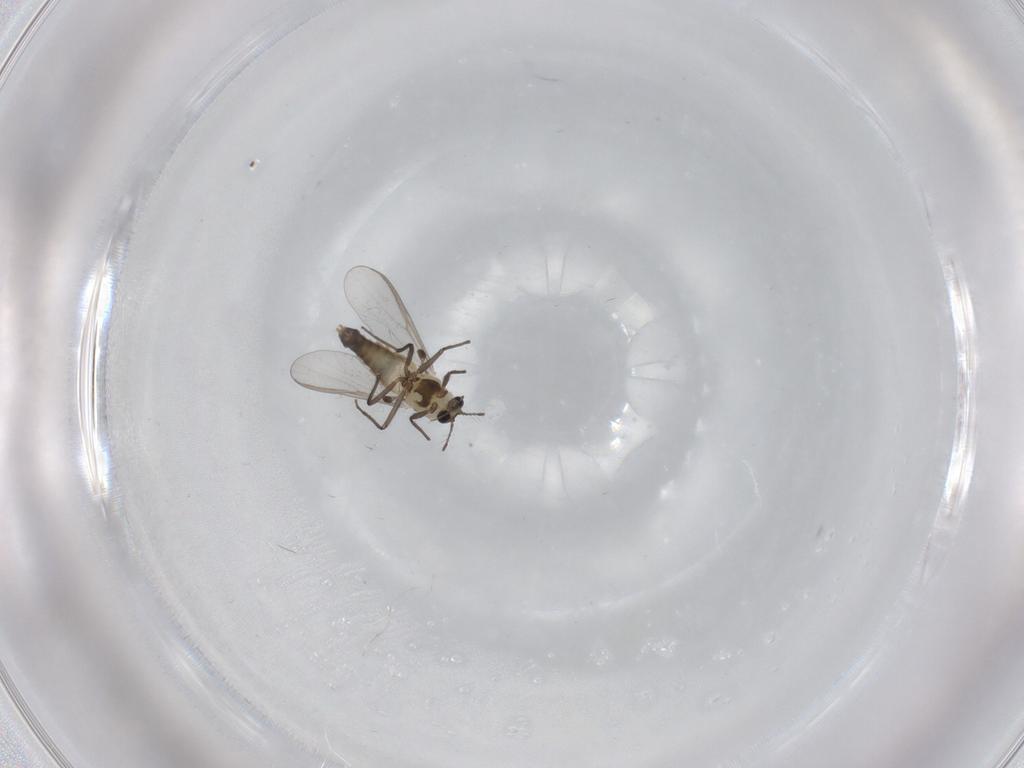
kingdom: Animalia
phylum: Arthropoda
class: Insecta
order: Diptera
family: Chironomidae
